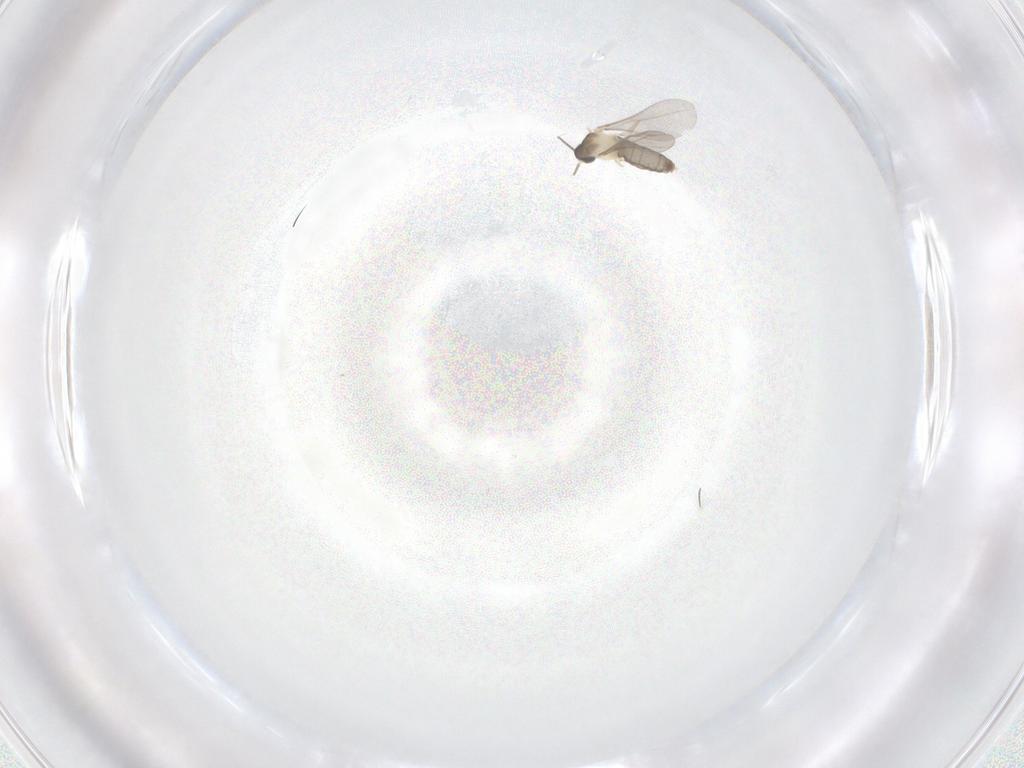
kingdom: Animalia
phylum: Arthropoda
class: Insecta
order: Diptera
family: Cecidomyiidae
